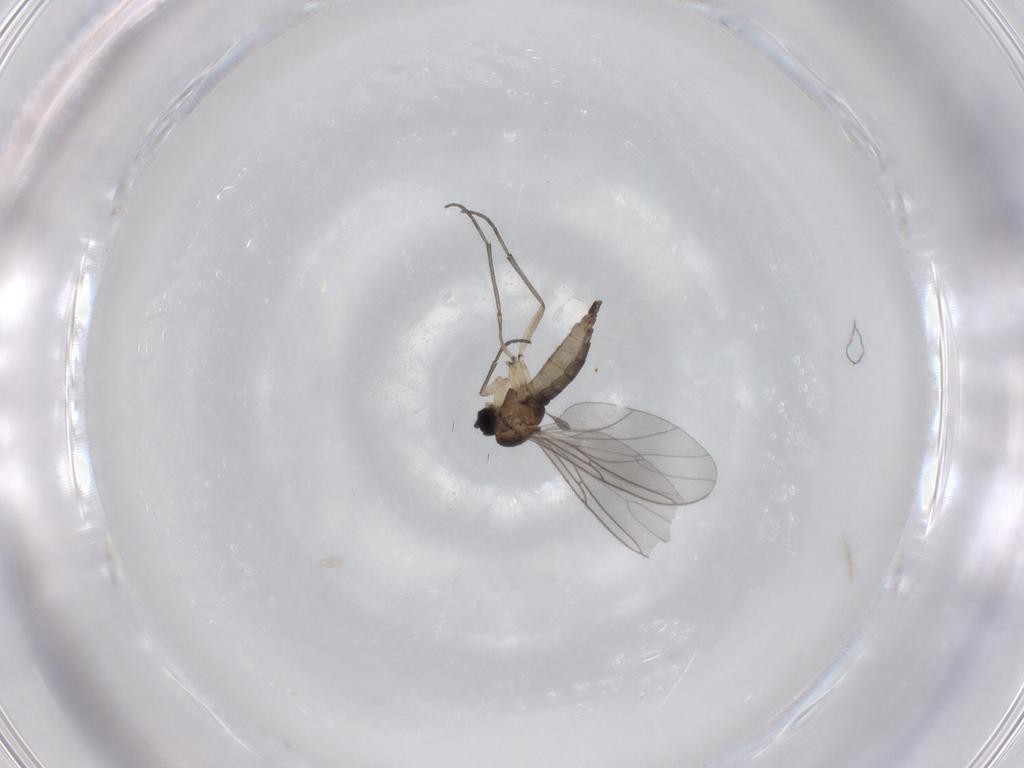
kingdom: Animalia
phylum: Arthropoda
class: Insecta
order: Diptera
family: Sciaridae
